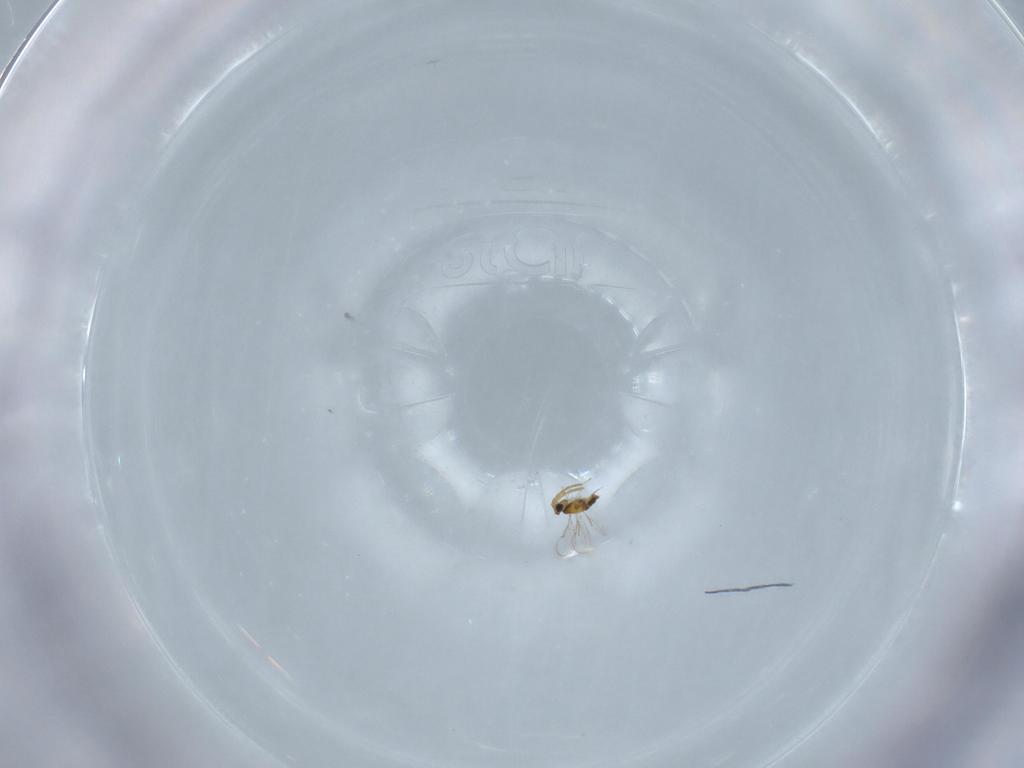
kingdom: Animalia
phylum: Arthropoda
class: Insecta
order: Hymenoptera
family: Aphelinidae
